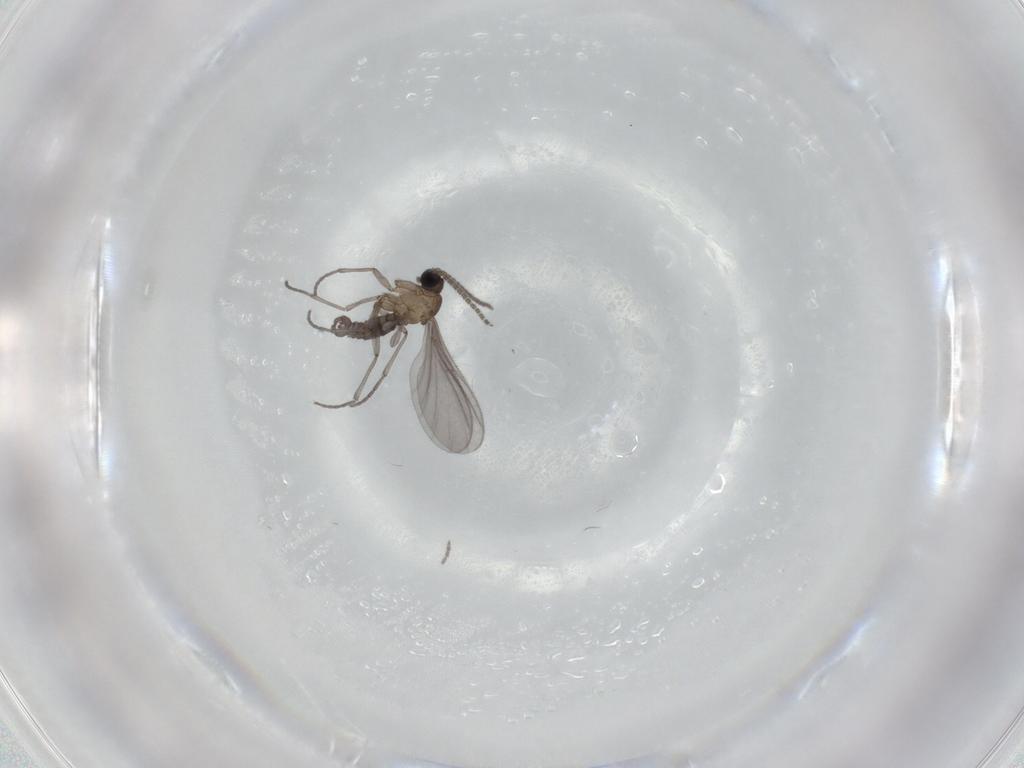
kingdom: Animalia
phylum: Arthropoda
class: Insecta
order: Diptera
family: Sciaridae
